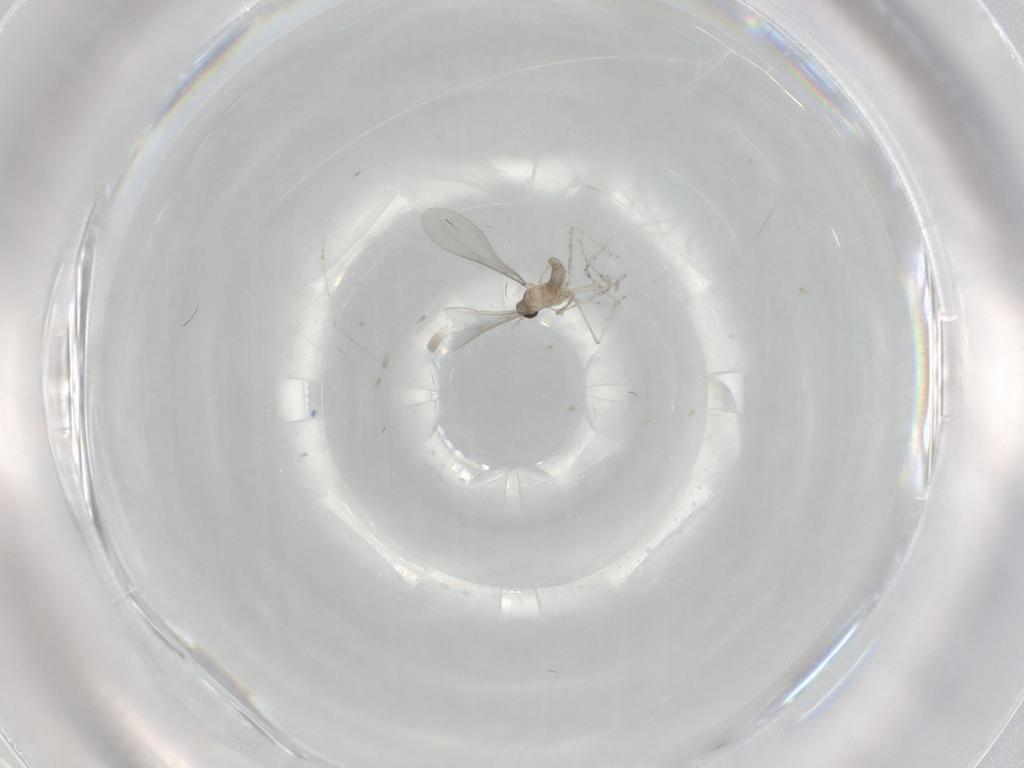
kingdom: Animalia
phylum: Arthropoda
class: Insecta
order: Diptera
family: Cecidomyiidae
